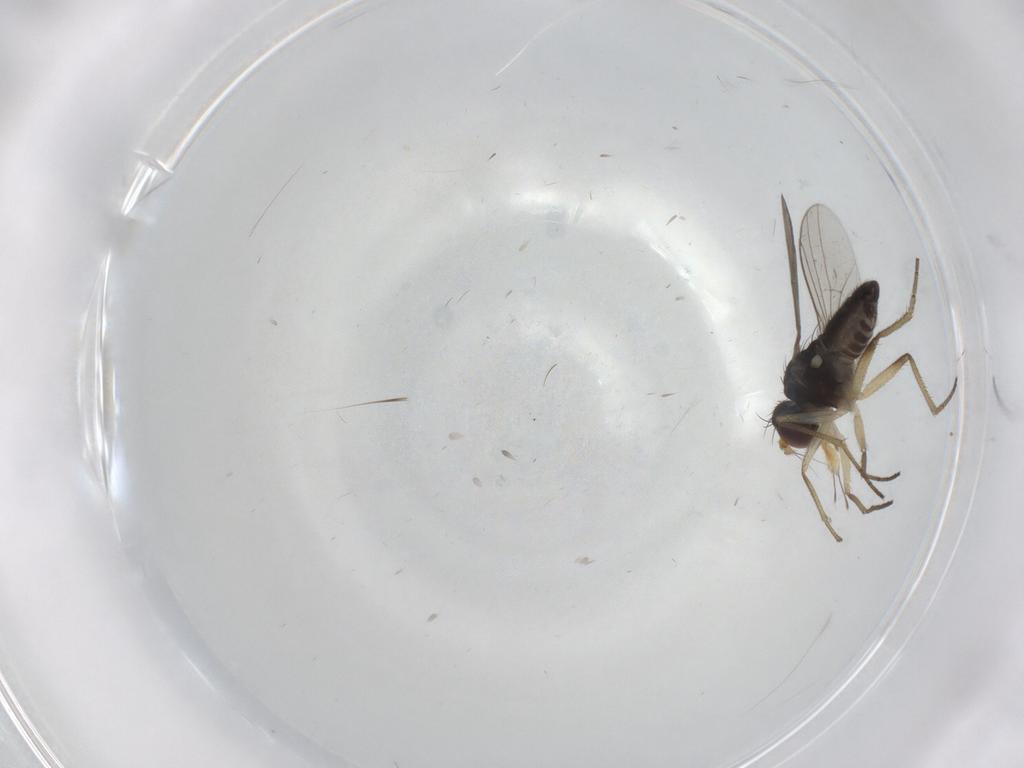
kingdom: Animalia
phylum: Arthropoda
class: Insecta
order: Diptera
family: Dolichopodidae
